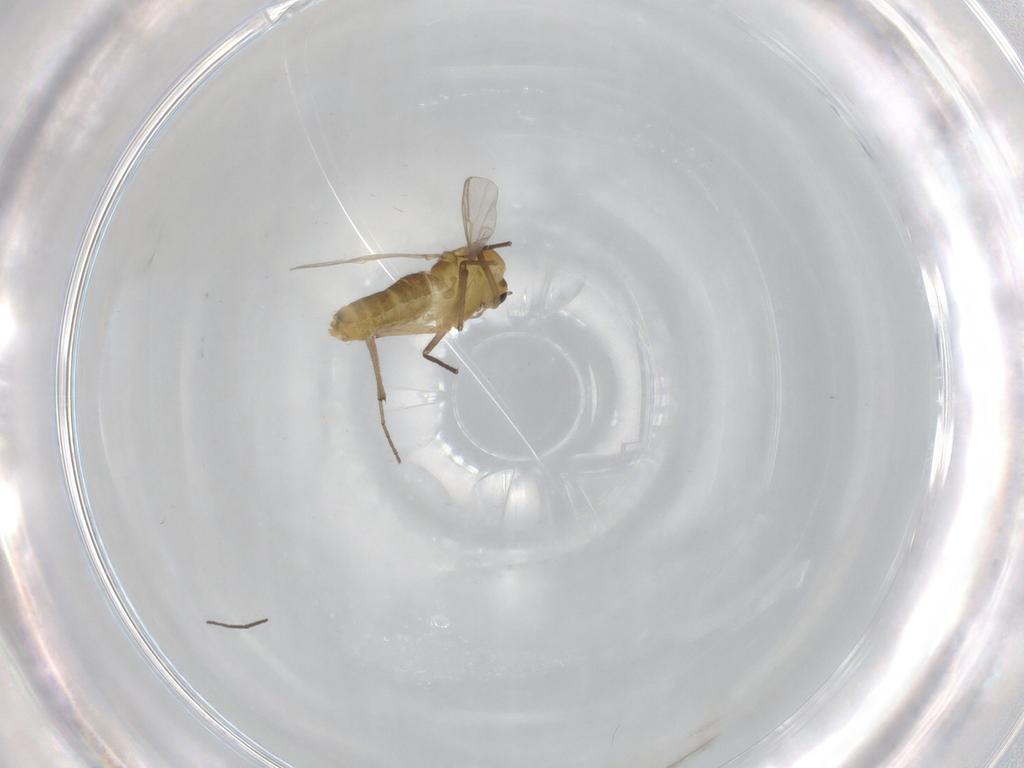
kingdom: Animalia
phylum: Arthropoda
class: Insecta
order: Diptera
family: Chironomidae
